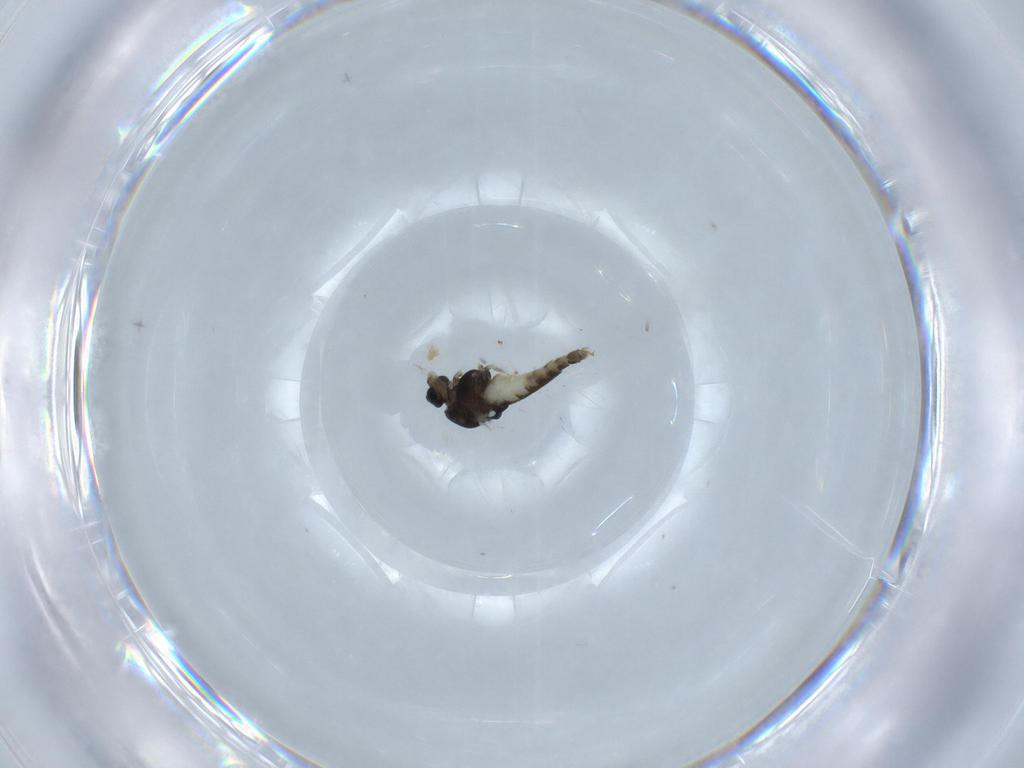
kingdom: Animalia
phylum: Arthropoda
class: Insecta
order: Diptera
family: Chironomidae
